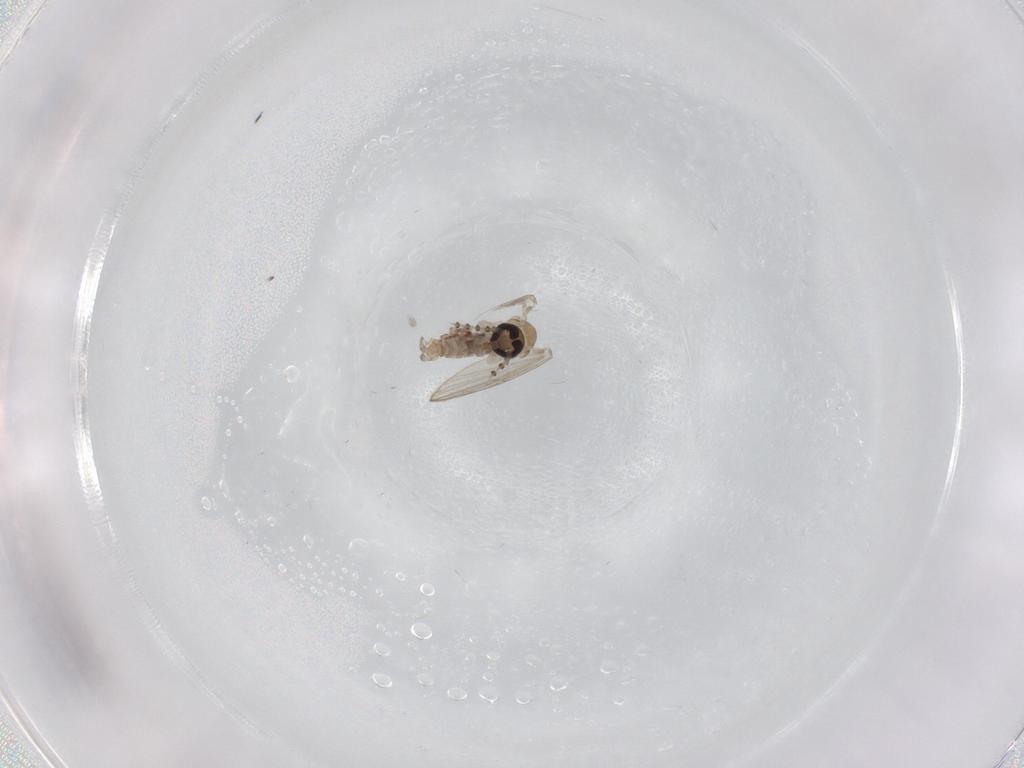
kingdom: Animalia
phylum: Arthropoda
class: Insecta
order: Diptera
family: Psychodidae
